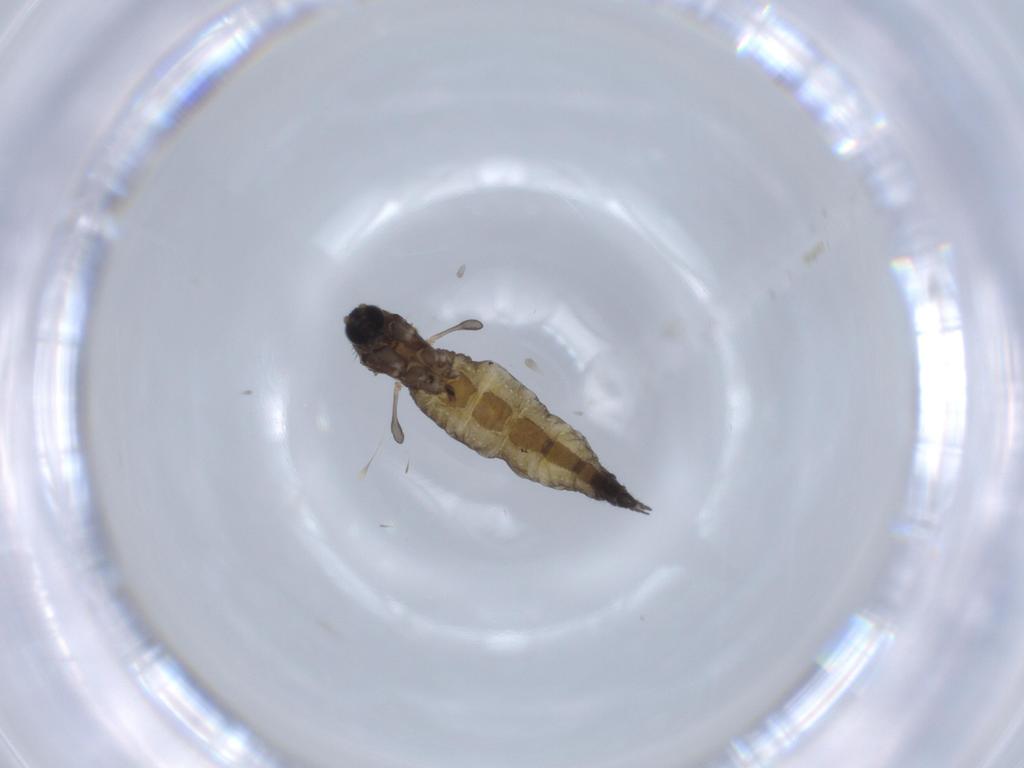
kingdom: Animalia
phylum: Arthropoda
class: Insecta
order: Diptera
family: Sciaridae
